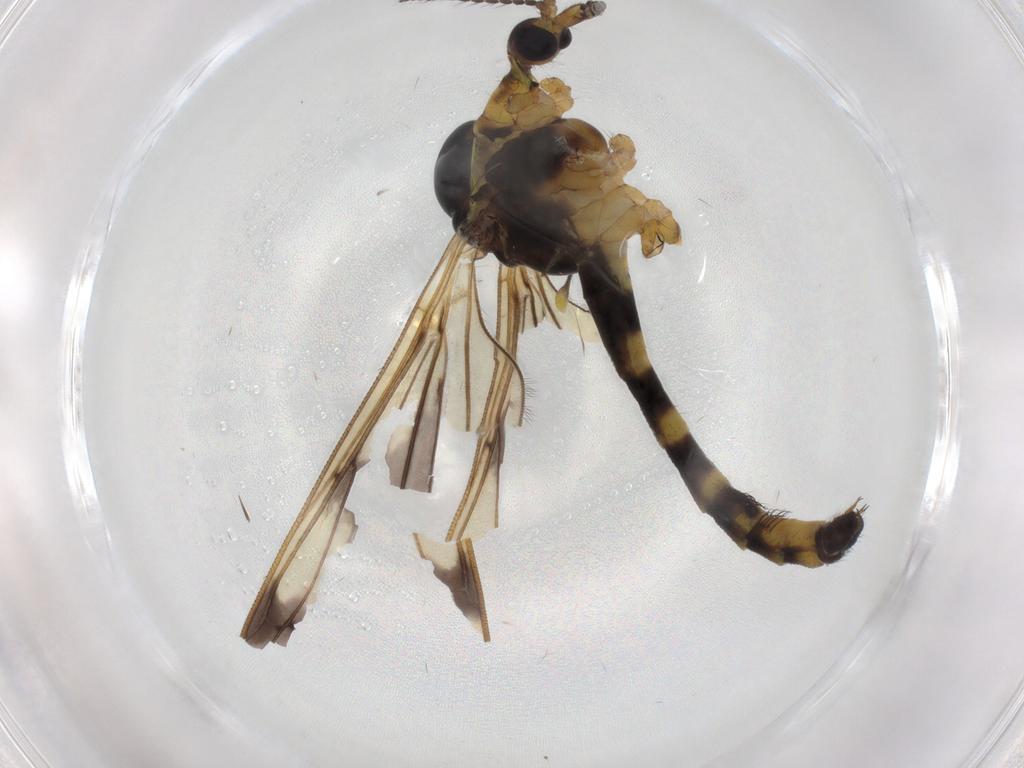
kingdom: Animalia
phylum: Arthropoda
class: Insecta
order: Diptera
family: Limoniidae
